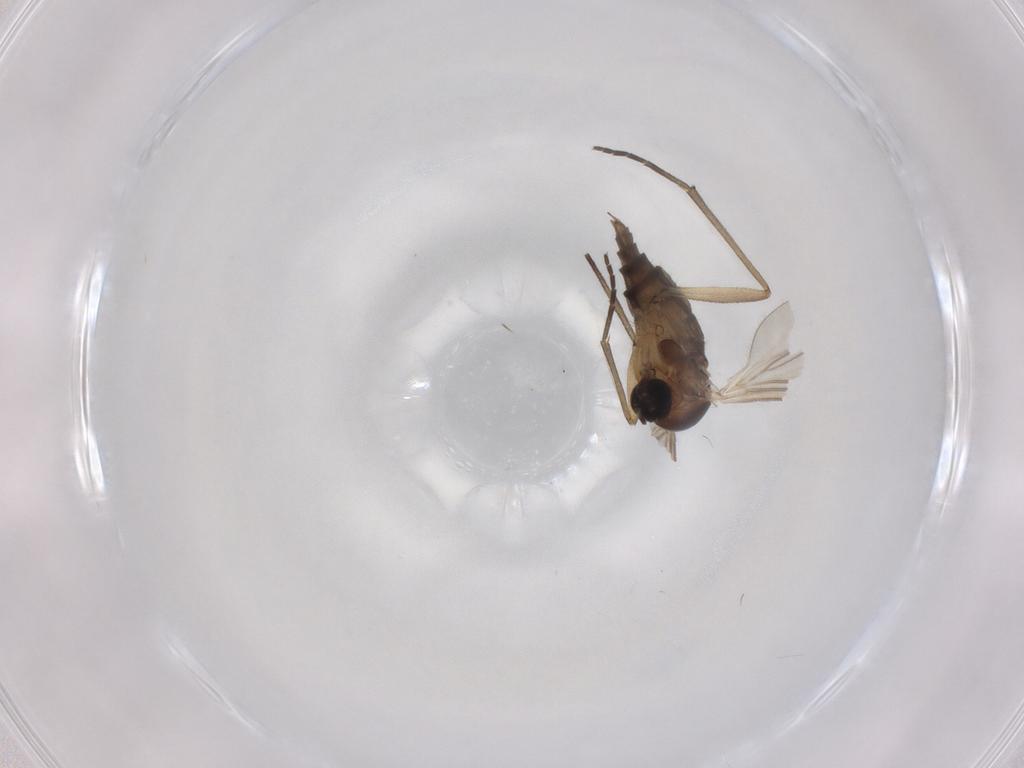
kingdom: Animalia
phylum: Arthropoda
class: Insecta
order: Diptera
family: Sciaridae
